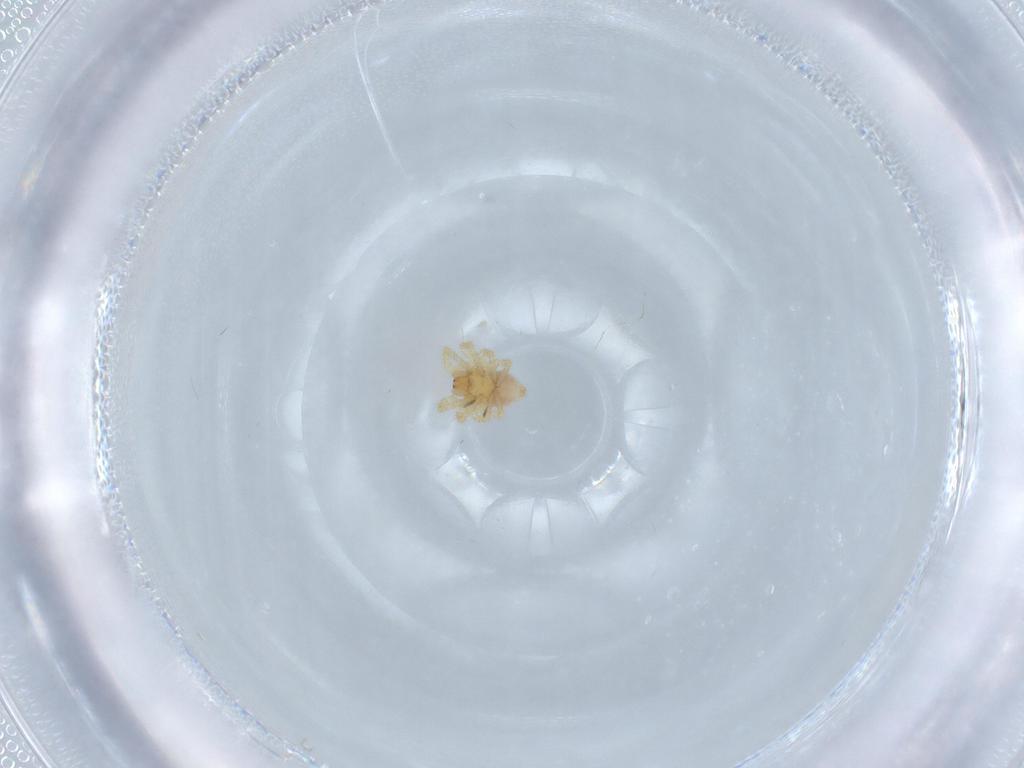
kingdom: Animalia
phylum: Arthropoda
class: Arachnida
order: Araneae
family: Theridiidae
